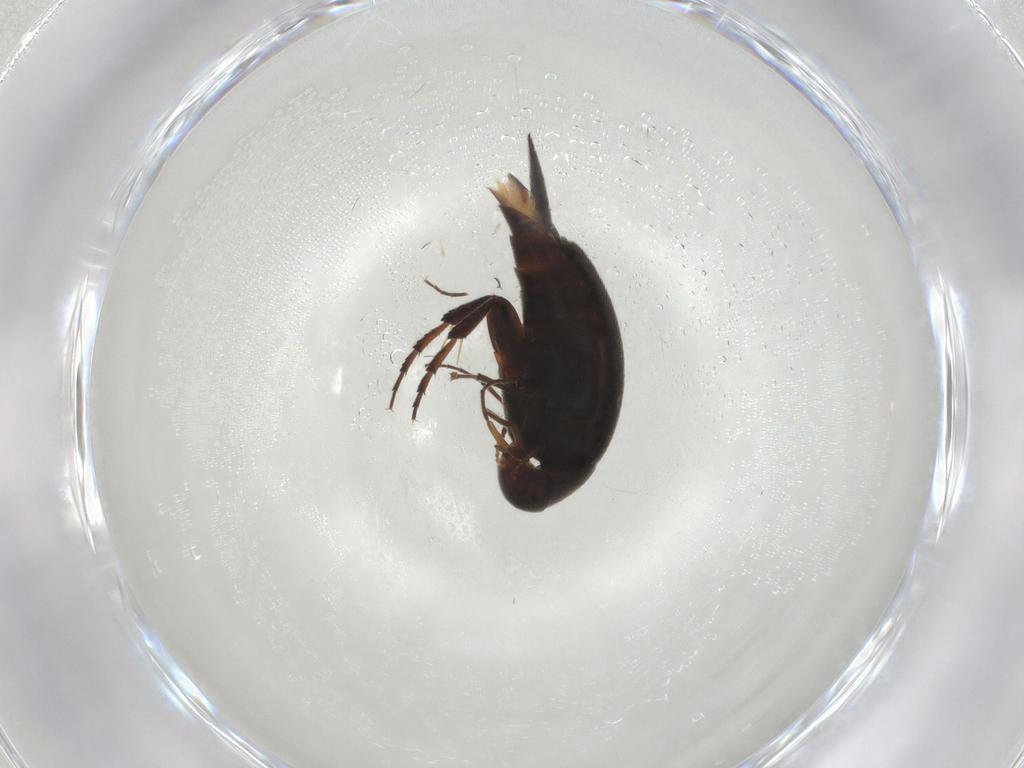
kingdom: Animalia
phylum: Arthropoda
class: Insecta
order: Coleoptera
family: Mordellidae
